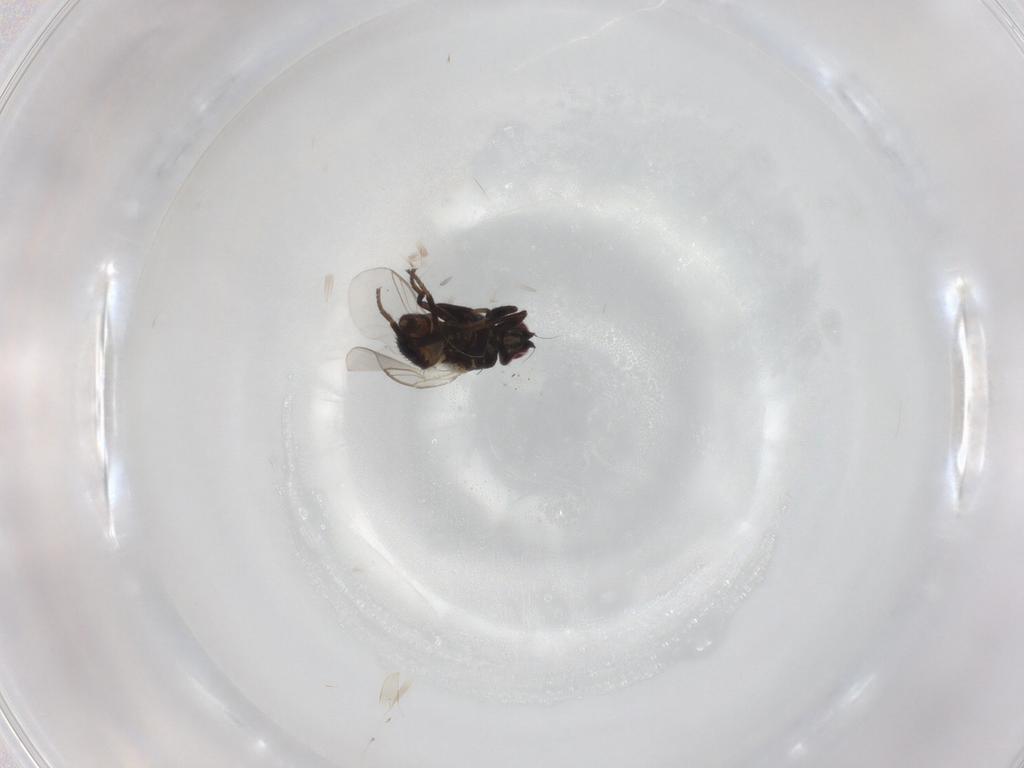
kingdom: Animalia
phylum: Arthropoda
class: Insecta
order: Diptera
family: Agromyzidae
